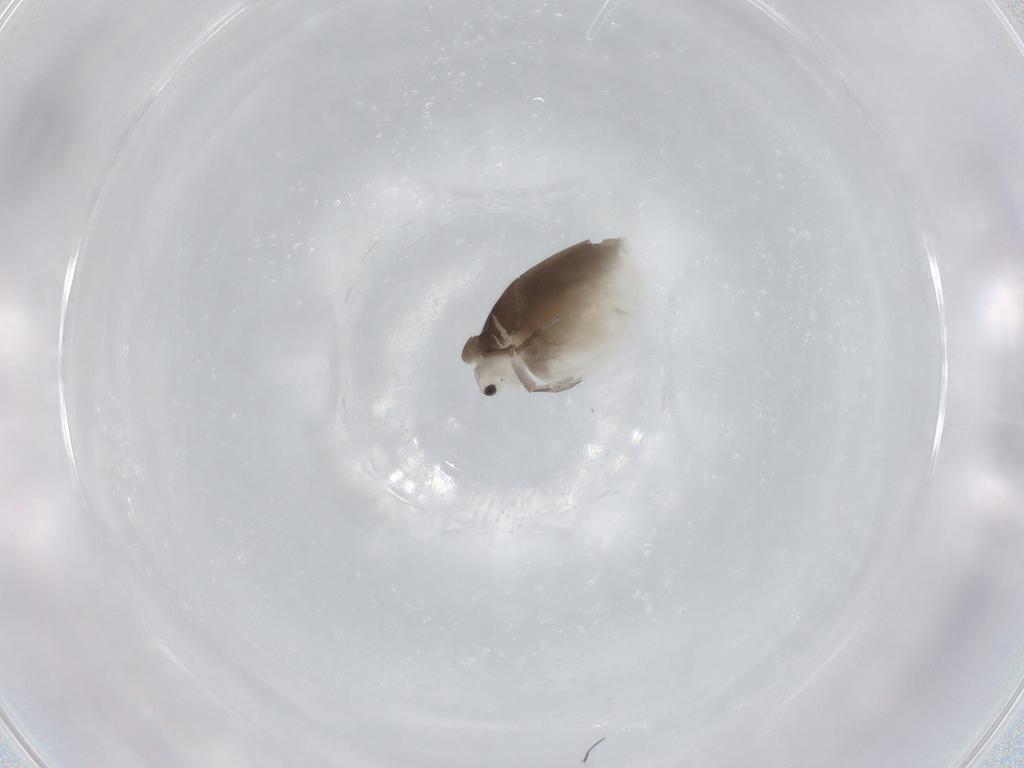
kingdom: Animalia
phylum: Arthropoda
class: Branchiopoda
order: Diplostraca
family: Daphniidae
